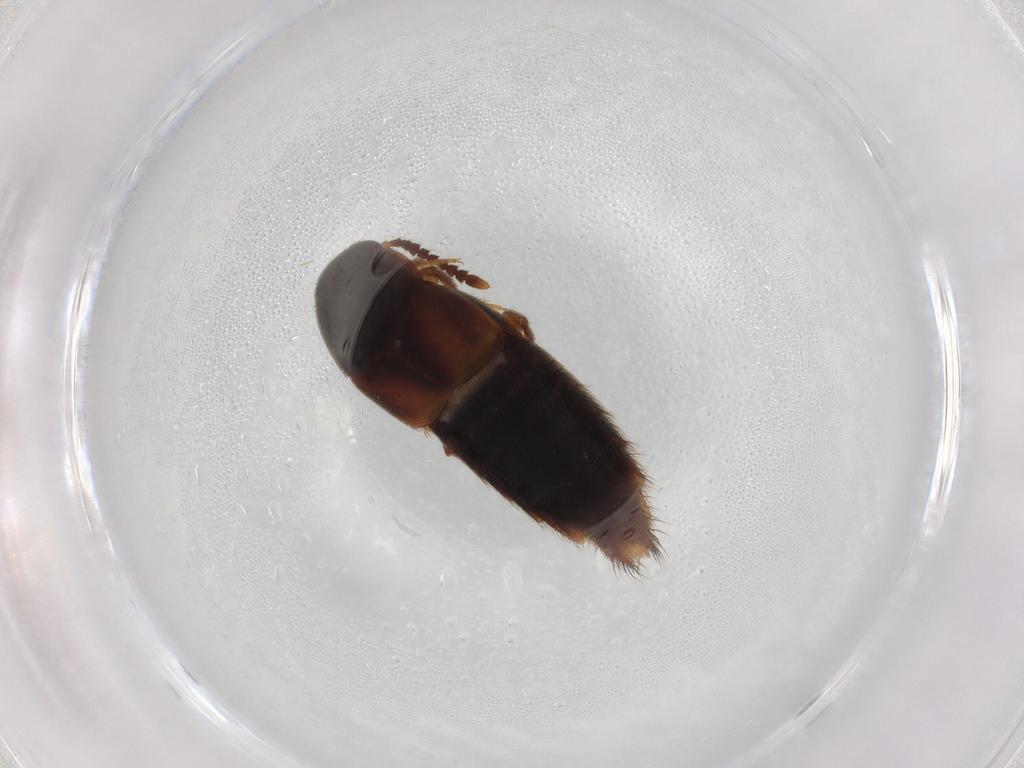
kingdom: Animalia
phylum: Arthropoda
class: Insecta
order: Coleoptera
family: Staphylinidae
